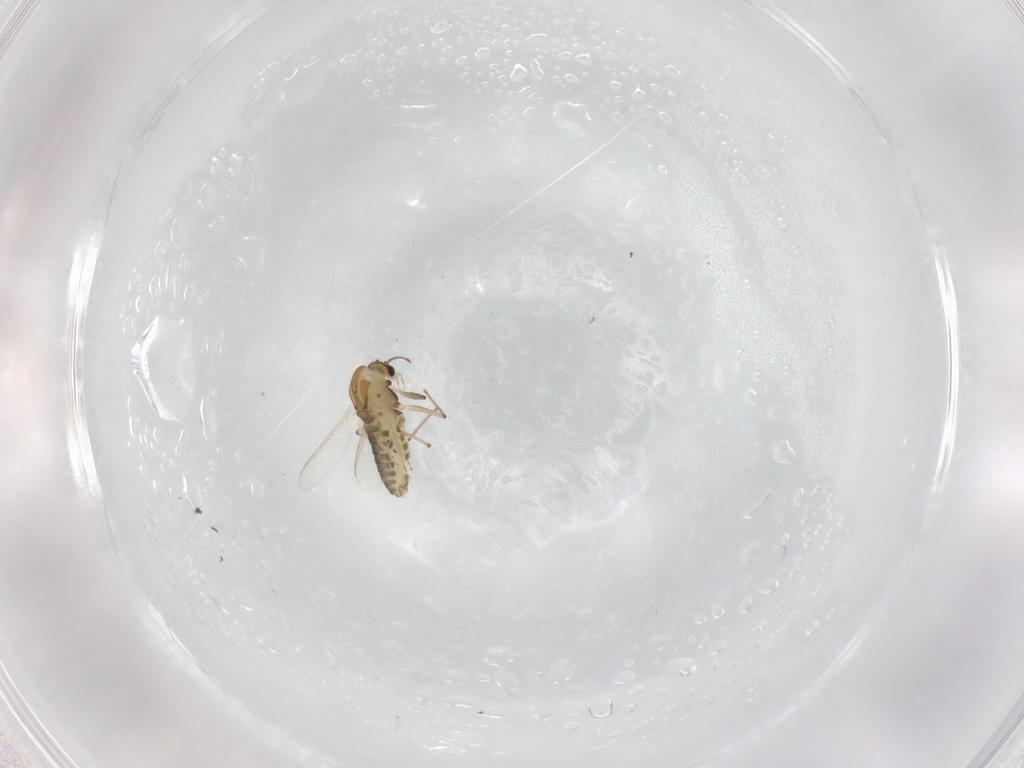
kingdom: Animalia
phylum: Arthropoda
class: Insecta
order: Diptera
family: Chironomidae
